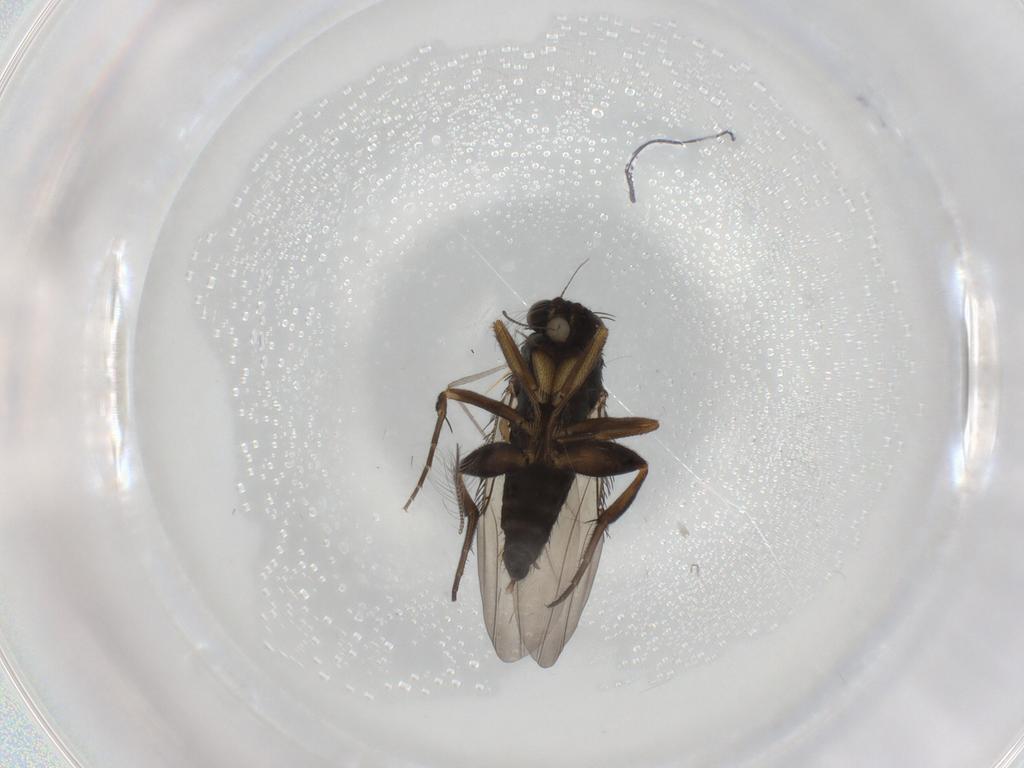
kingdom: Animalia
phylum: Arthropoda
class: Insecta
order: Diptera
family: Phoridae
